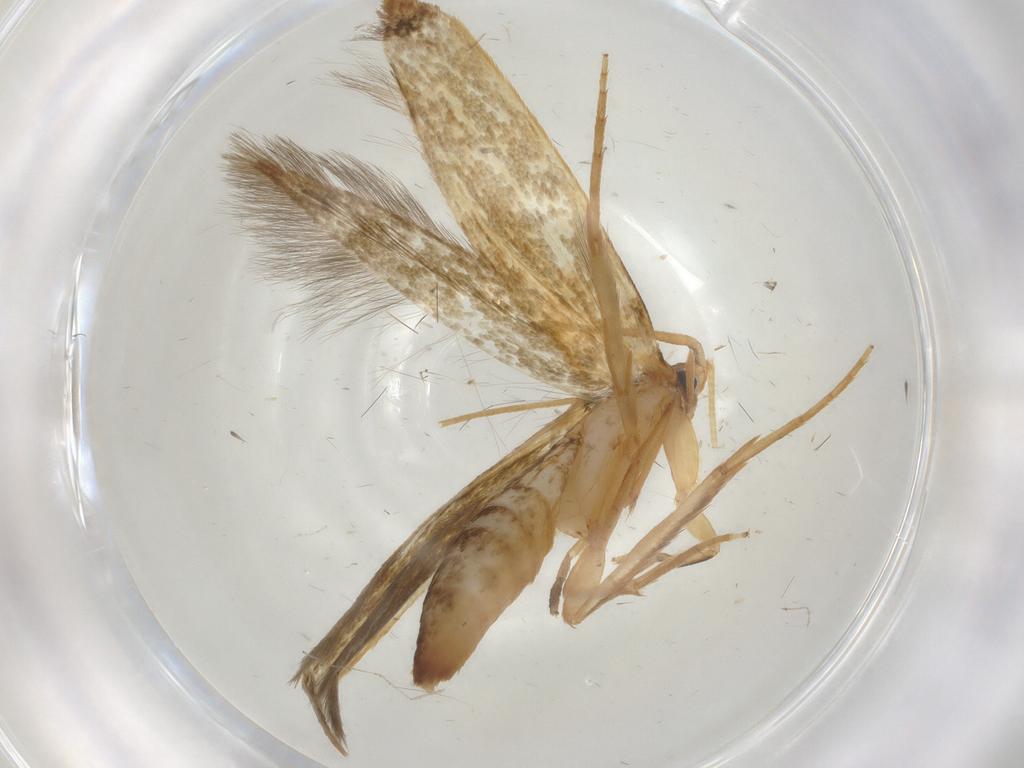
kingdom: Animalia
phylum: Arthropoda
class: Insecta
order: Lepidoptera
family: Tineidae
